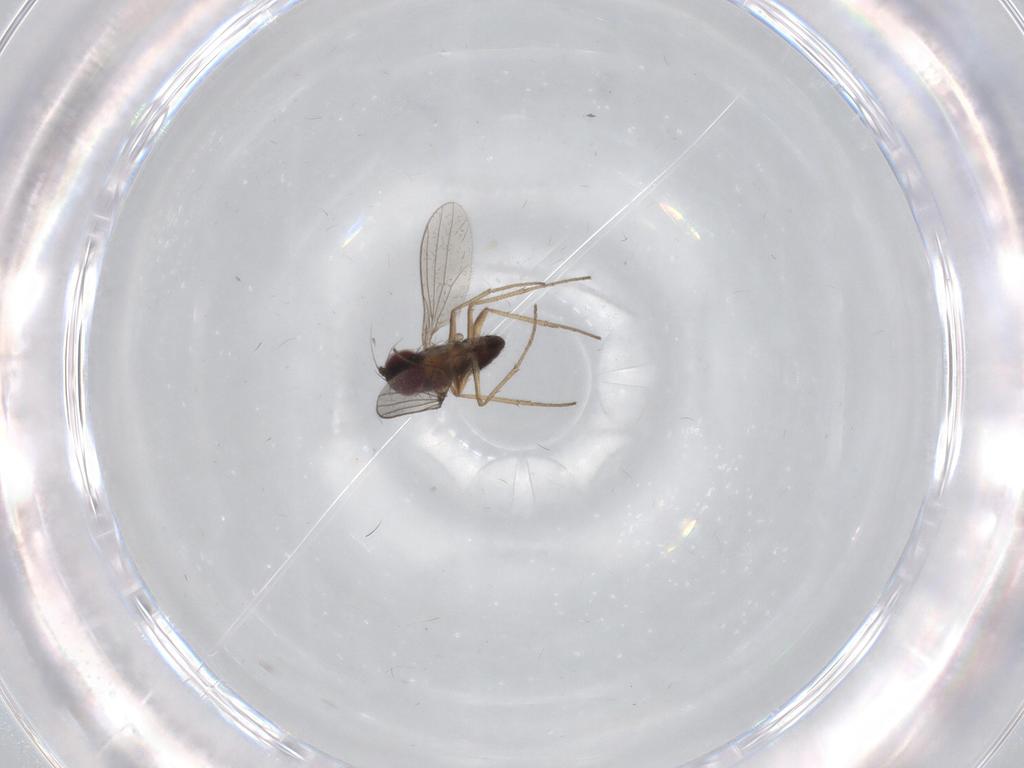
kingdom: Animalia
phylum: Arthropoda
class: Insecta
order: Diptera
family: Dolichopodidae
